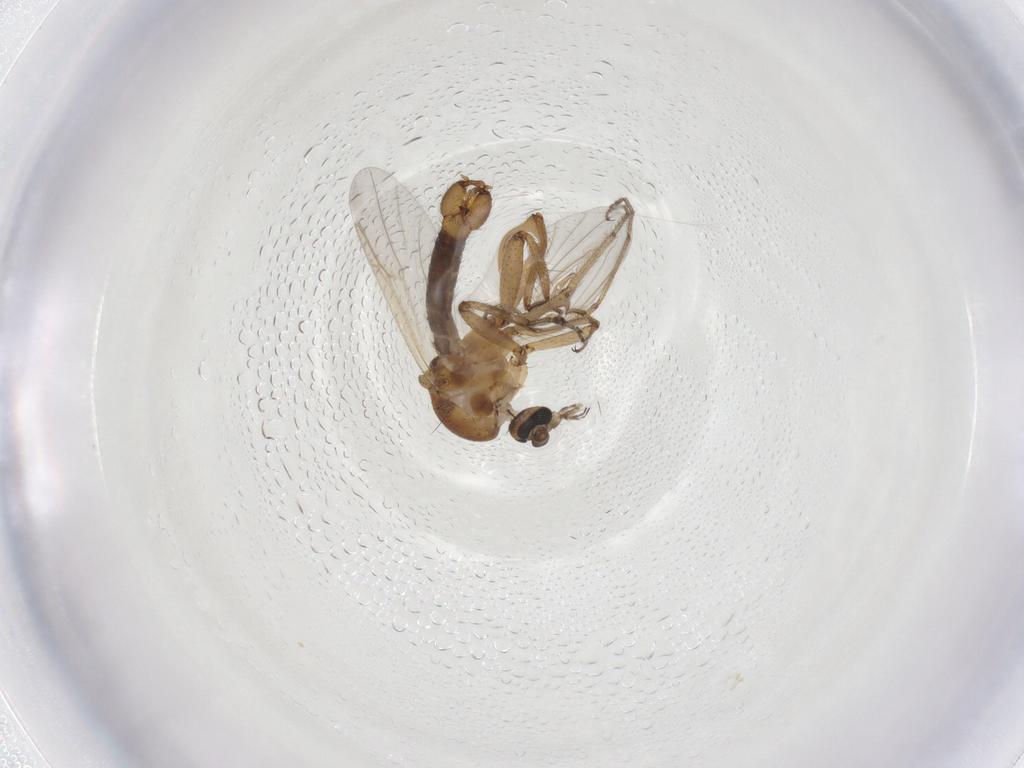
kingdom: Animalia
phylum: Arthropoda
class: Insecta
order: Diptera
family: Ceratopogonidae
